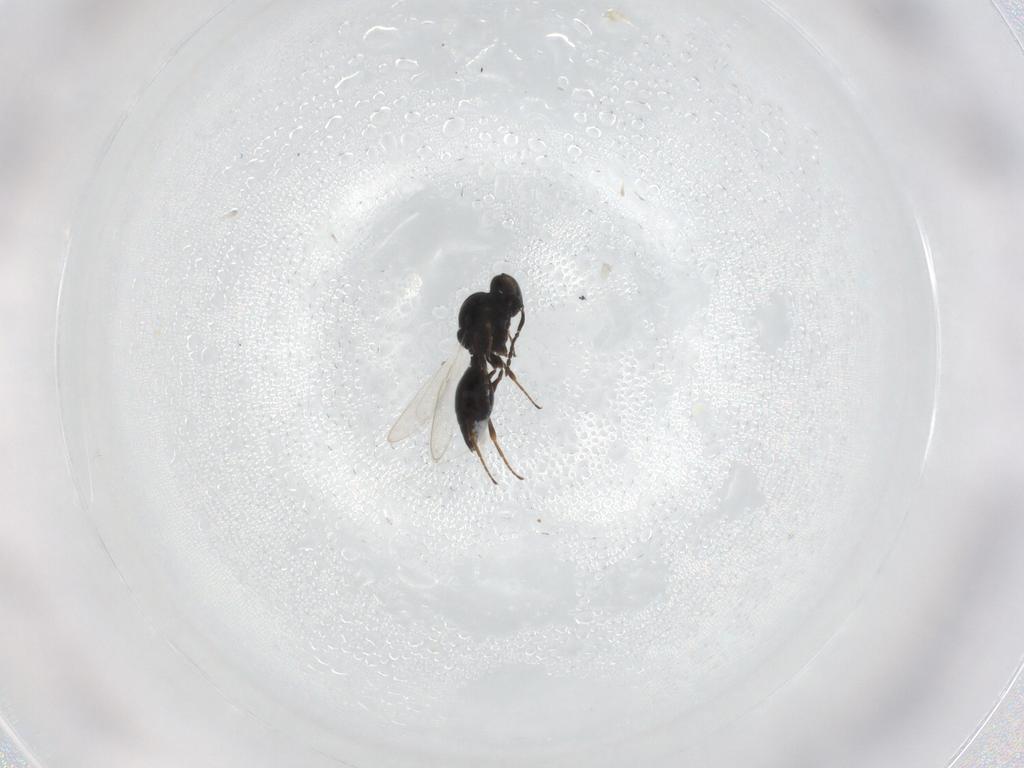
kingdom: Animalia
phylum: Arthropoda
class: Insecta
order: Diptera
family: Mythicomyiidae
